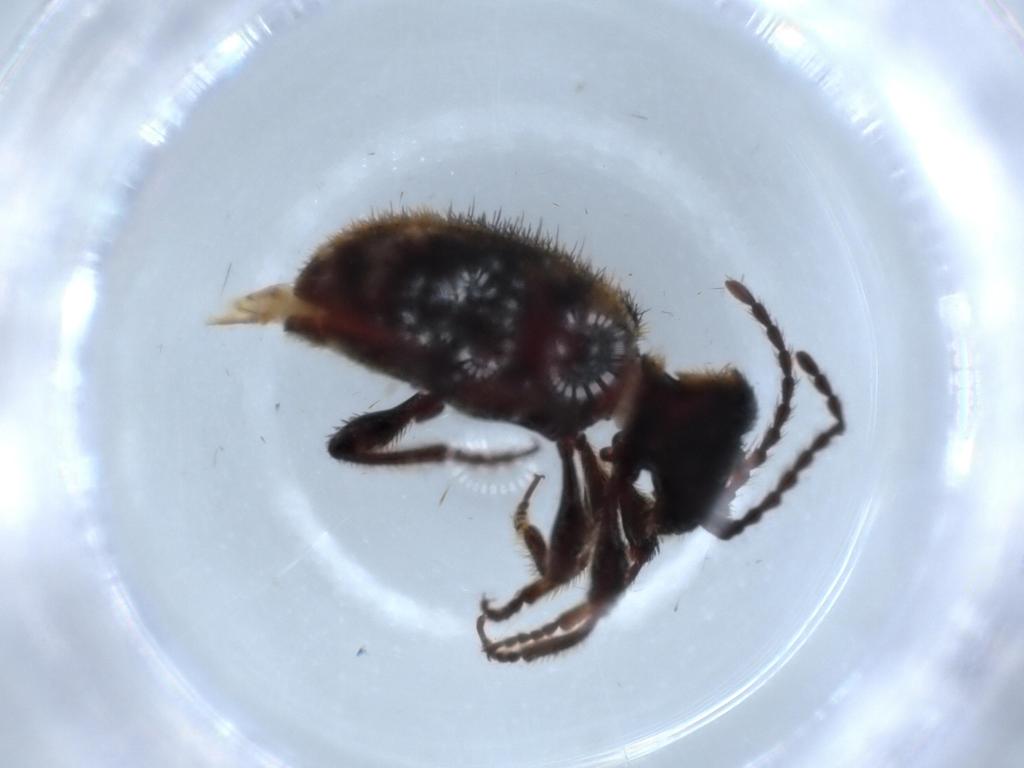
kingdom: Animalia
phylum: Arthropoda
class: Insecta
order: Coleoptera
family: Ptinidae
